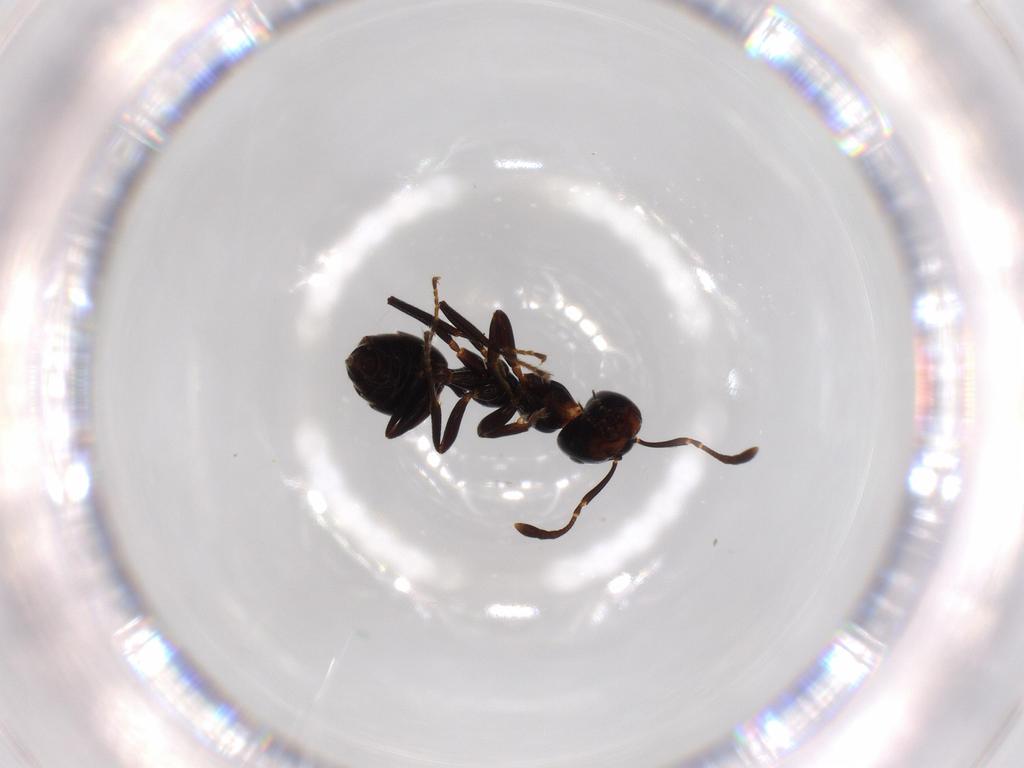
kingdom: Animalia
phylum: Arthropoda
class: Insecta
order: Hymenoptera
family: Formicidae
